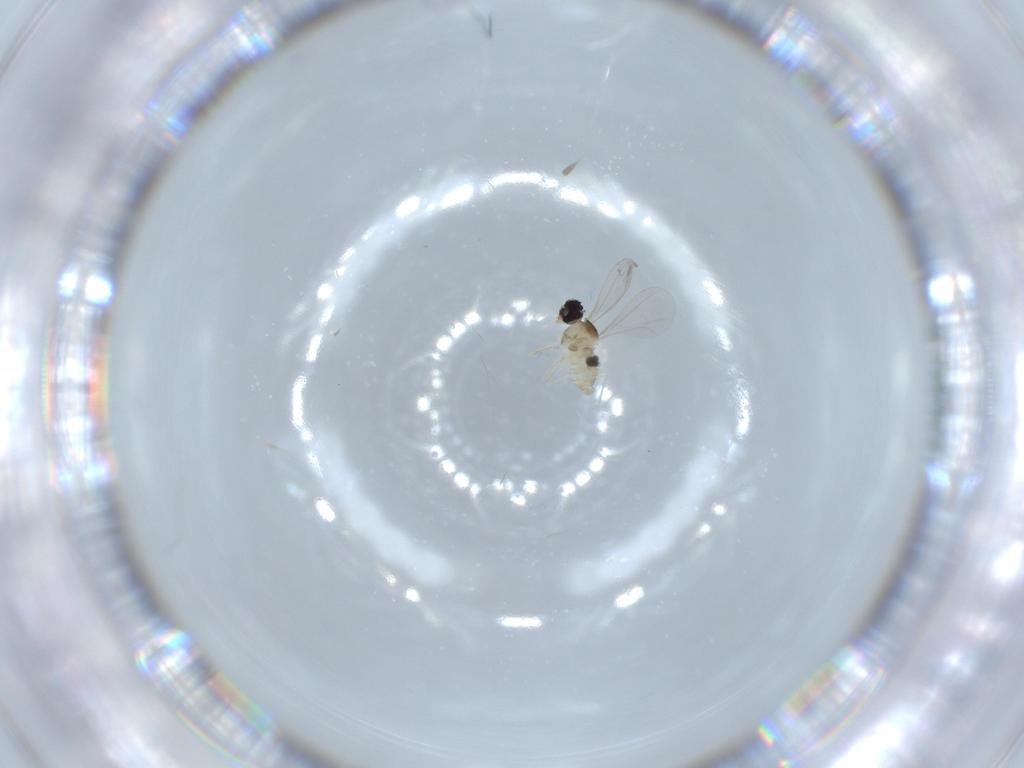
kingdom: Animalia
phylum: Arthropoda
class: Insecta
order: Diptera
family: Cecidomyiidae
